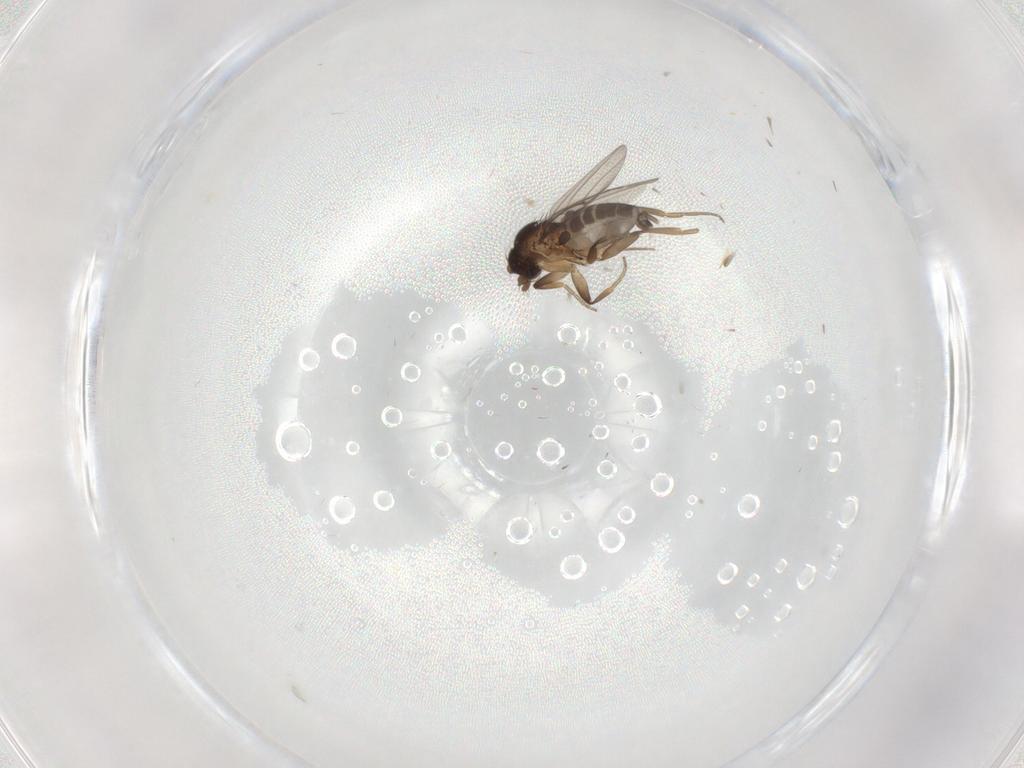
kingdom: Animalia
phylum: Arthropoda
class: Insecta
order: Diptera
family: Phoridae
